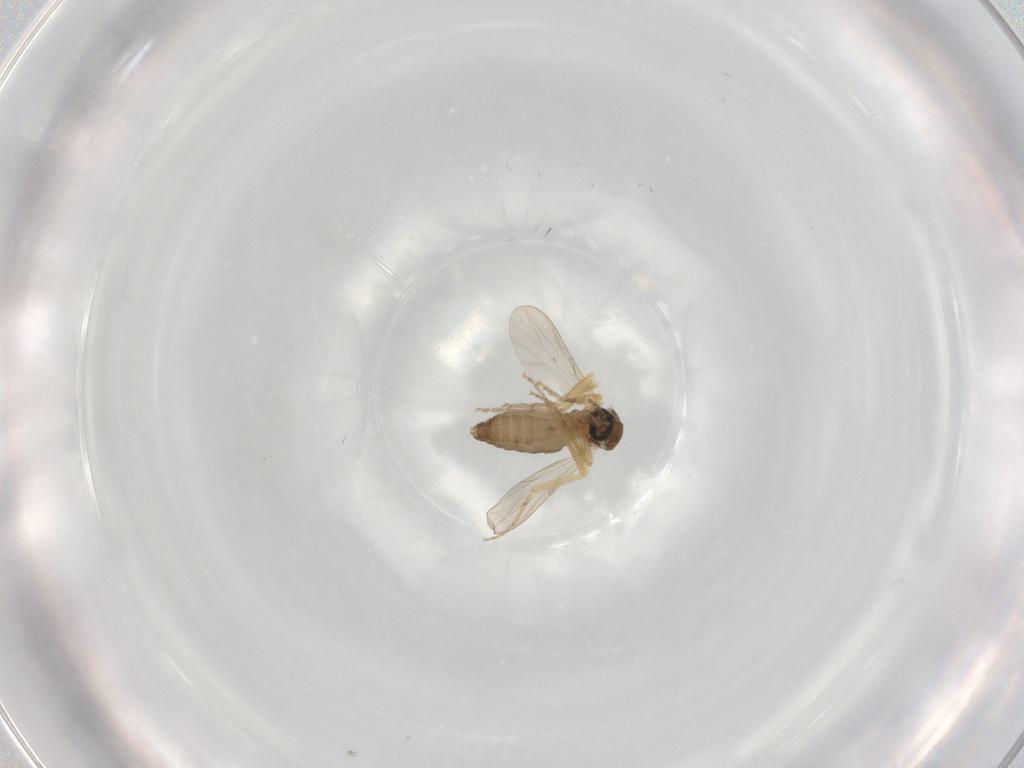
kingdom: Animalia
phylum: Arthropoda
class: Insecta
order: Diptera
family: Ceratopogonidae
